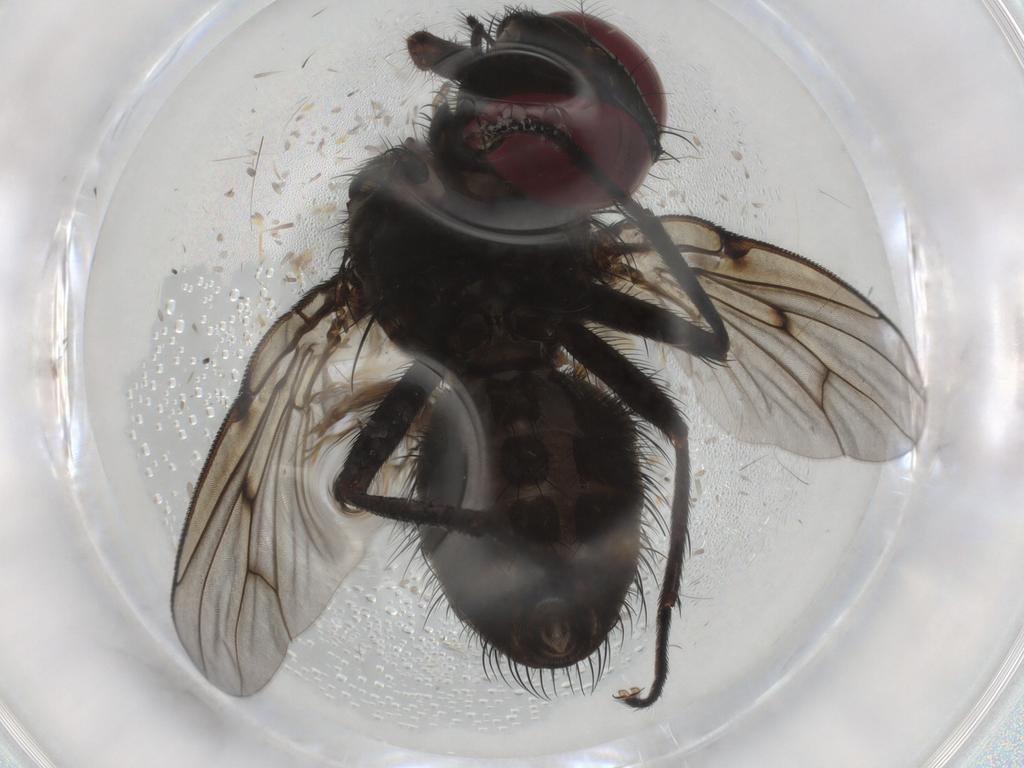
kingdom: Animalia
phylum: Arthropoda
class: Insecta
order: Diptera
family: Muscidae
